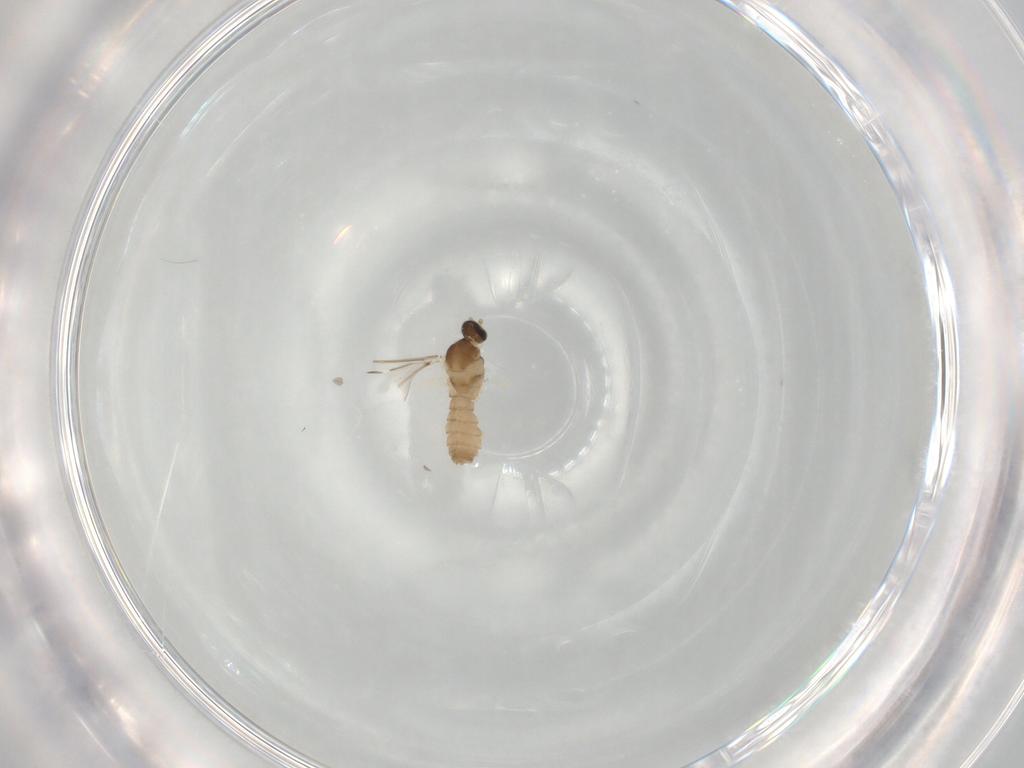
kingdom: Animalia
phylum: Arthropoda
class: Insecta
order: Diptera
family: Cecidomyiidae
